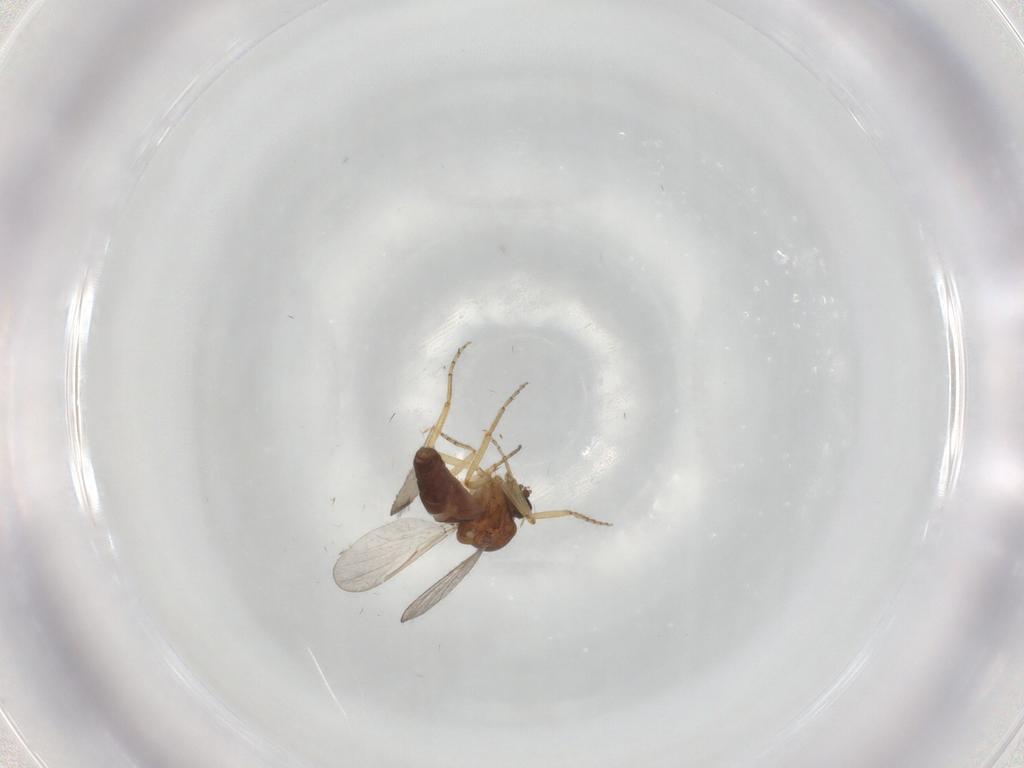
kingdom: Animalia
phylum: Arthropoda
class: Insecta
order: Diptera
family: Ceratopogonidae
